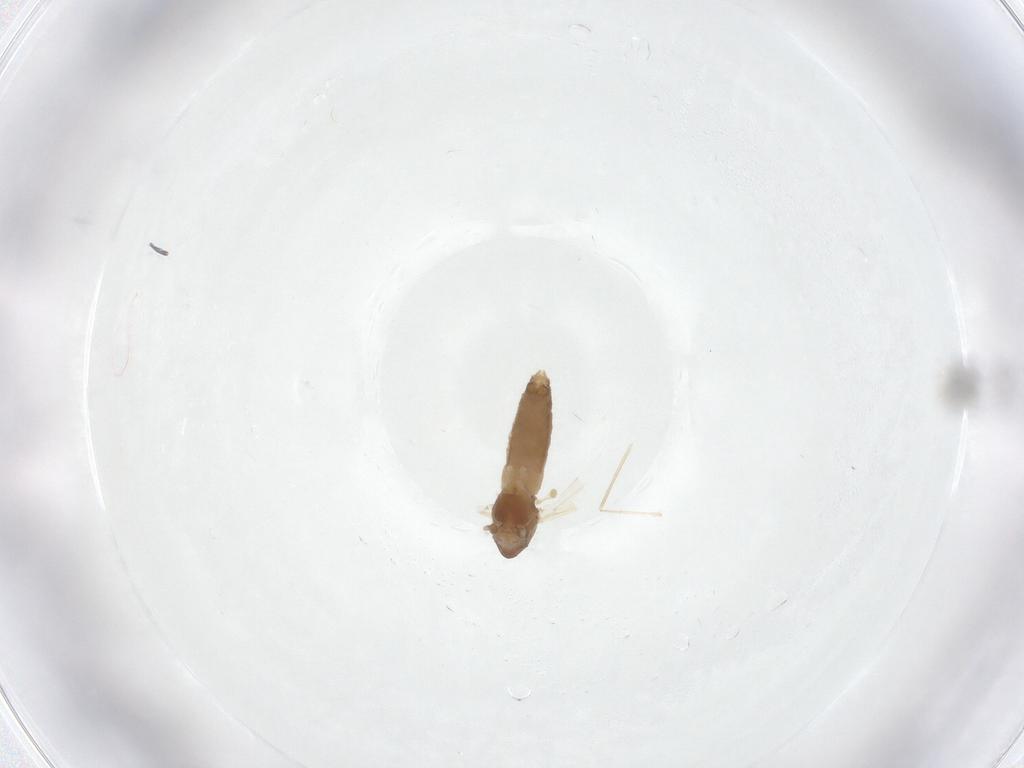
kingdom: Animalia
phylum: Arthropoda
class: Insecta
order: Diptera
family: Chironomidae
